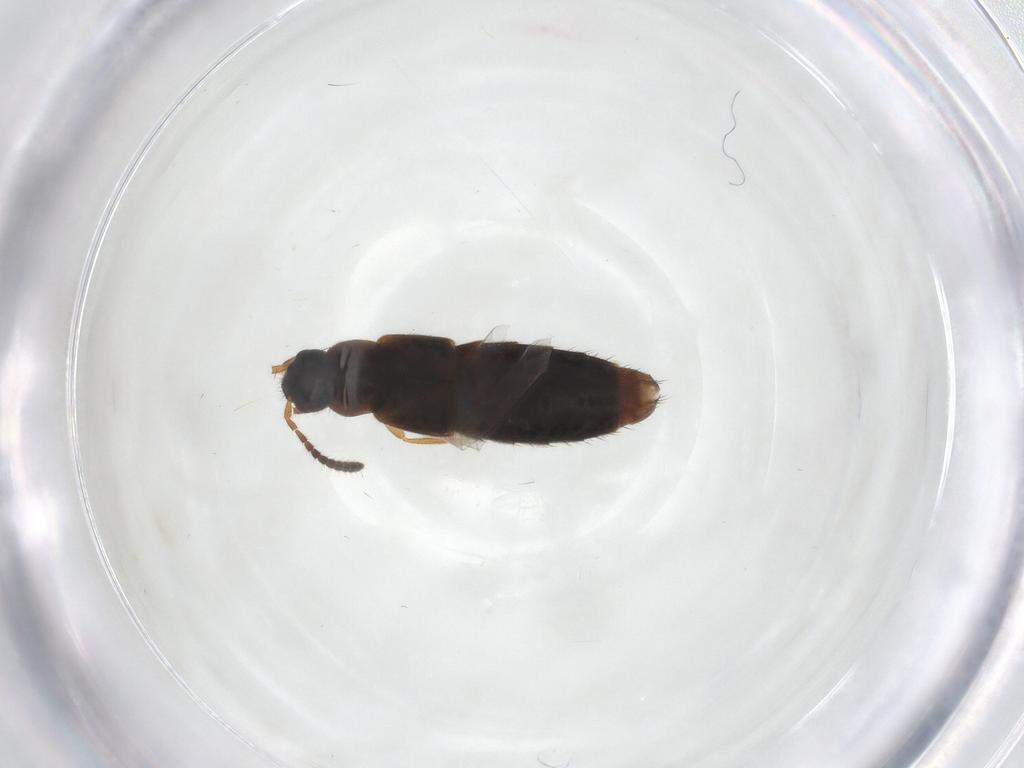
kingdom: Animalia
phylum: Arthropoda
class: Insecta
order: Coleoptera
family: Staphylinidae
